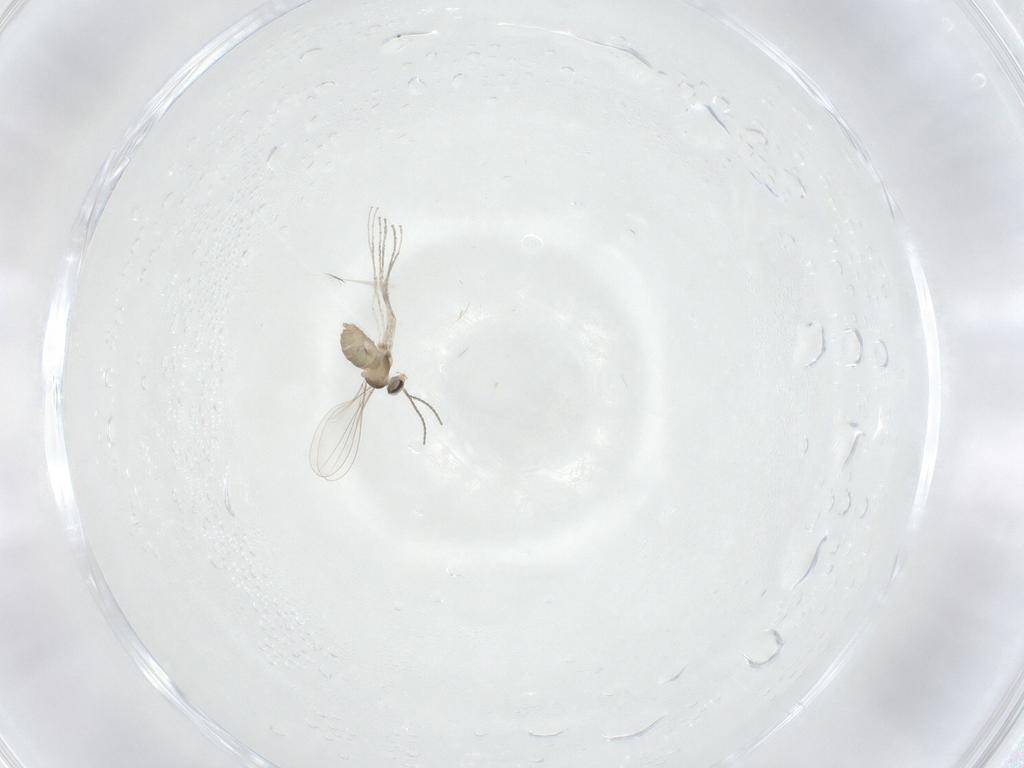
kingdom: Animalia
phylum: Arthropoda
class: Insecta
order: Diptera
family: Cecidomyiidae
